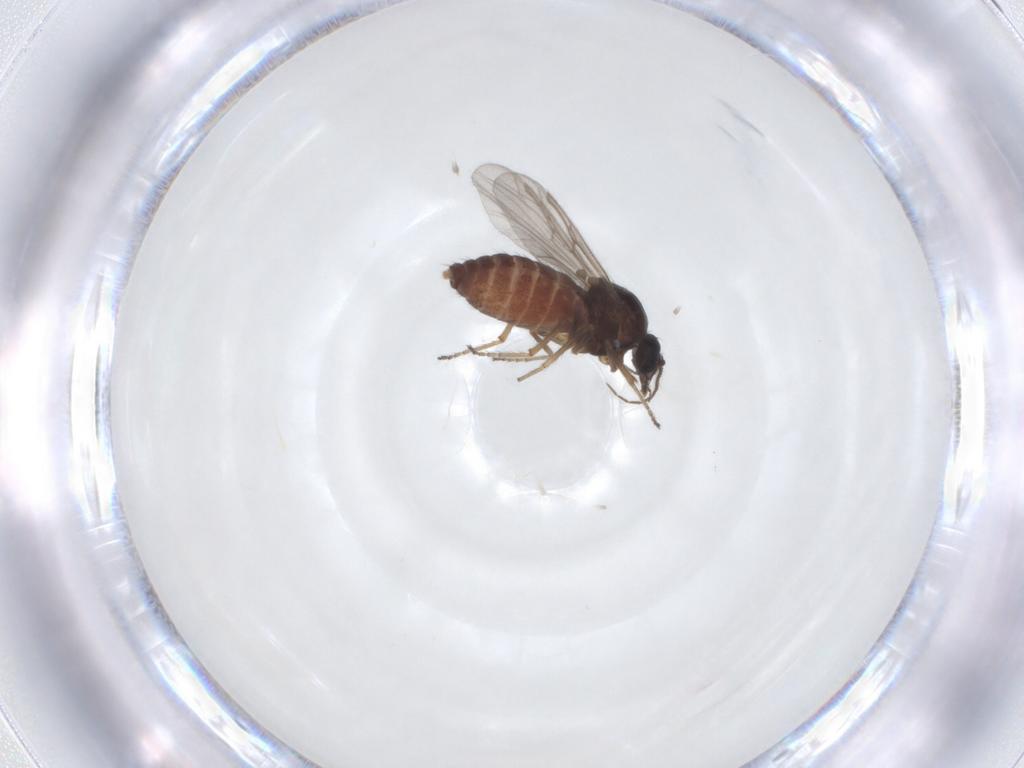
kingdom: Animalia
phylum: Arthropoda
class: Insecta
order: Diptera
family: Ceratopogonidae
